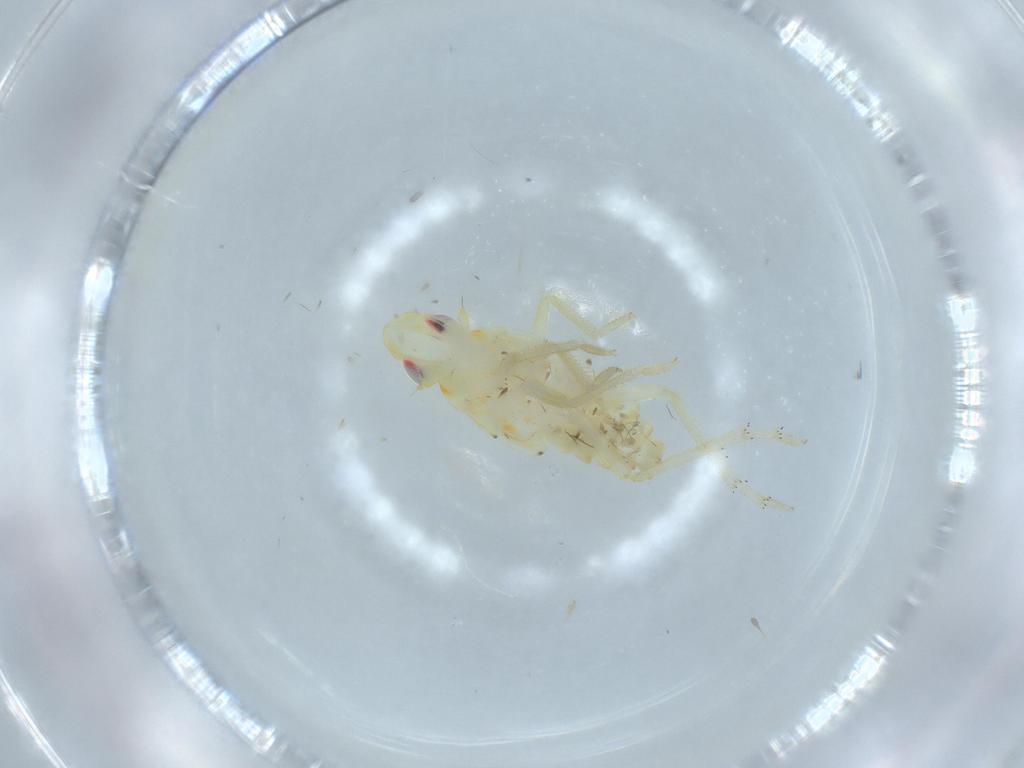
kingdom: Animalia
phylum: Arthropoda
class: Insecta
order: Hemiptera
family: Tropiduchidae
